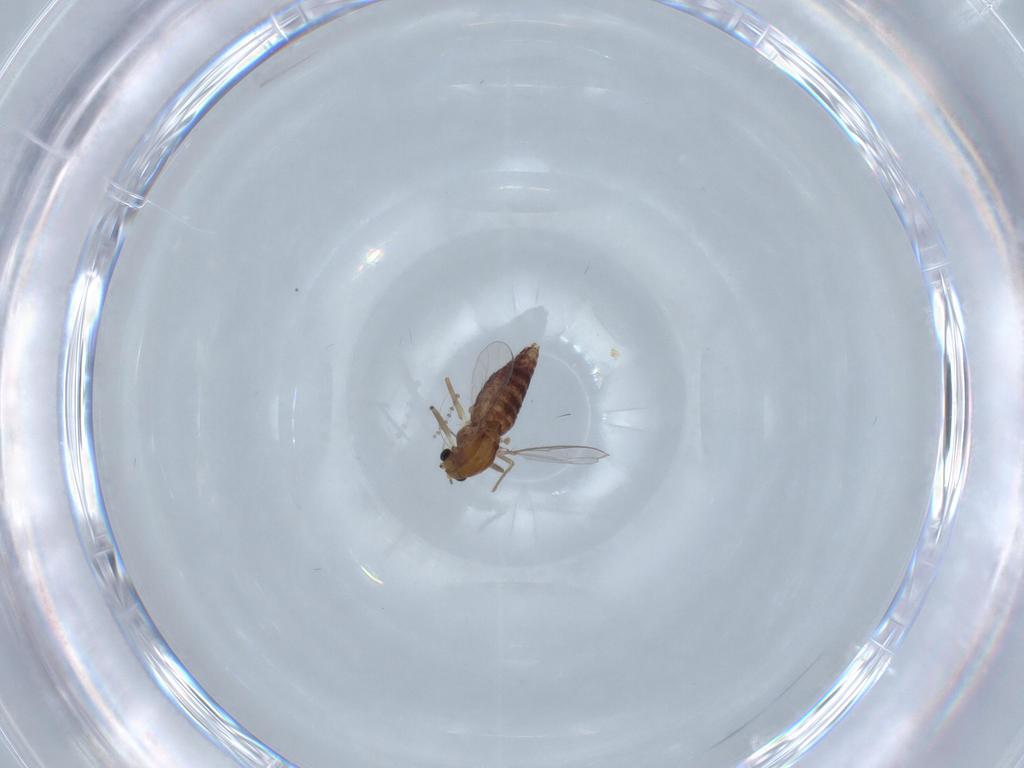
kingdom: Animalia
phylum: Arthropoda
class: Insecta
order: Diptera
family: Chironomidae
